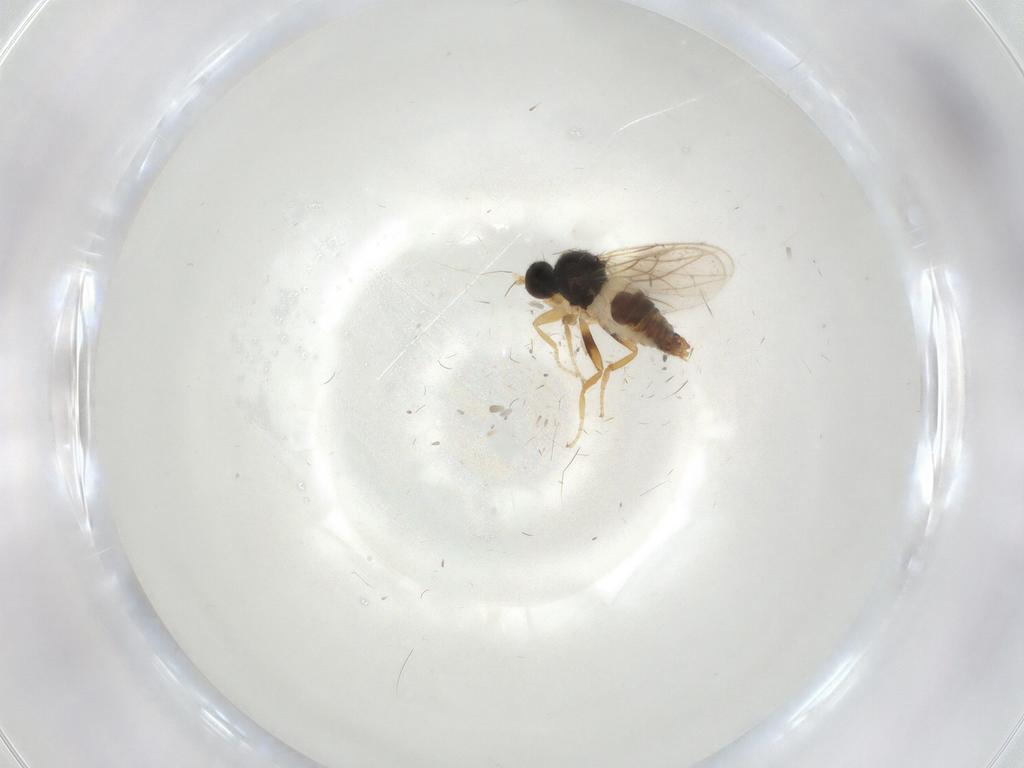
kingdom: Animalia
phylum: Arthropoda
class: Insecta
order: Diptera
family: Hybotidae
